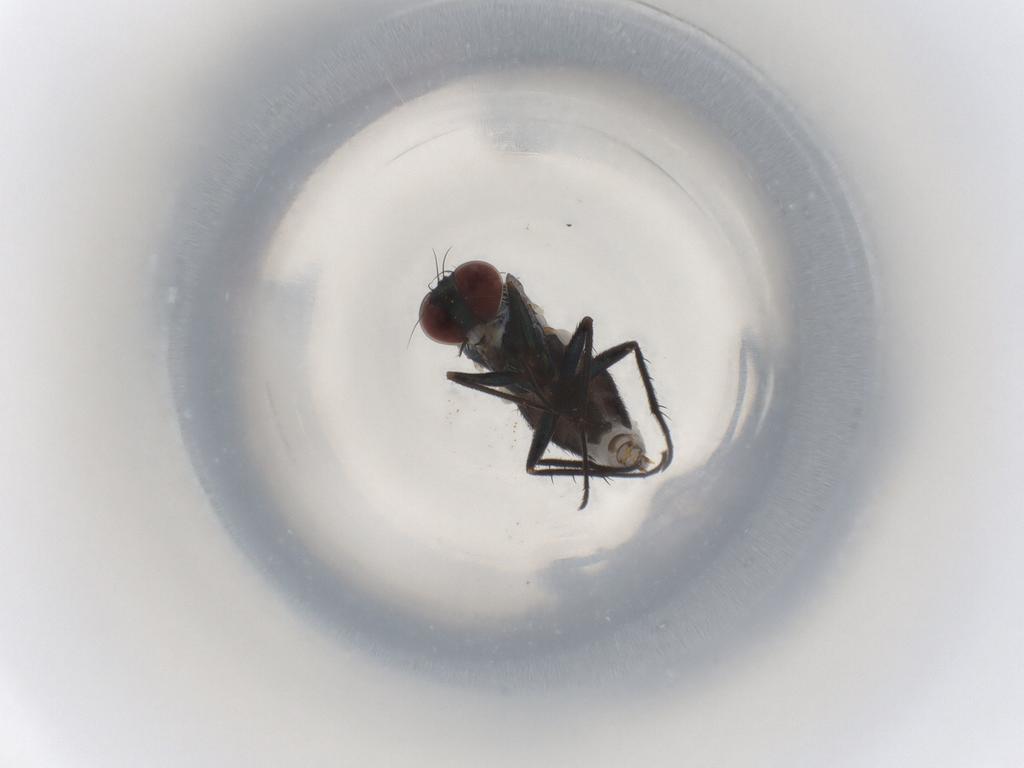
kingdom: Animalia
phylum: Arthropoda
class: Insecta
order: Diptera
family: Dolichopodidae
